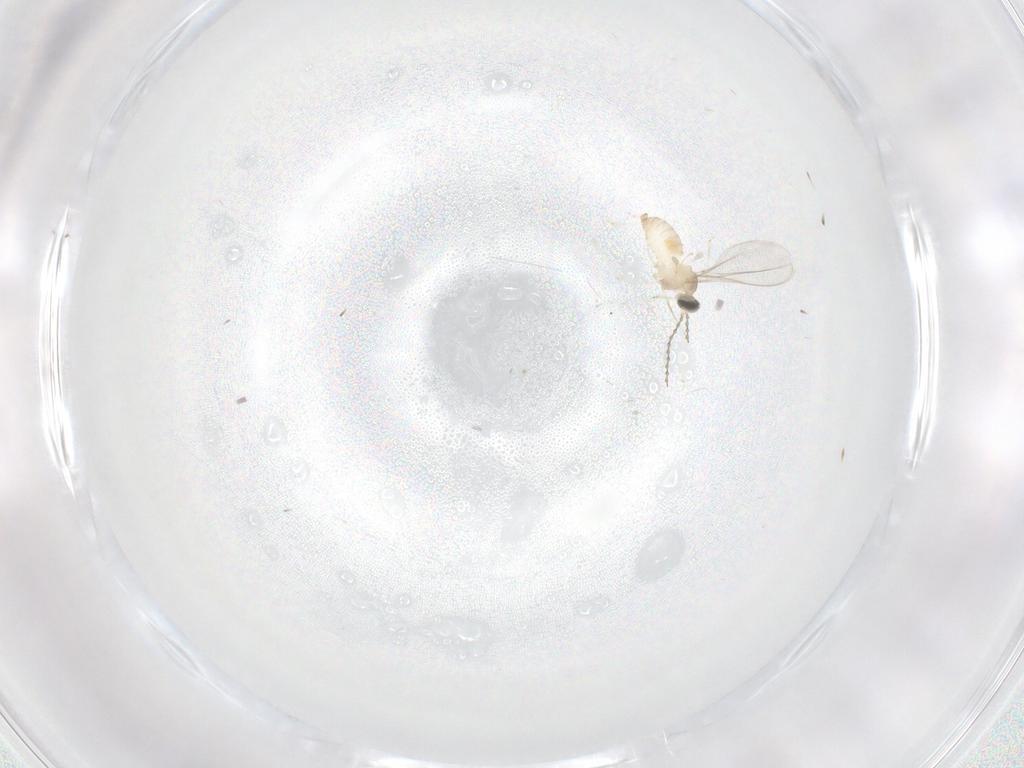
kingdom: Animalia
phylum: Arthropoda
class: Insecta
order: Diptera
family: Cecidomyiidae
